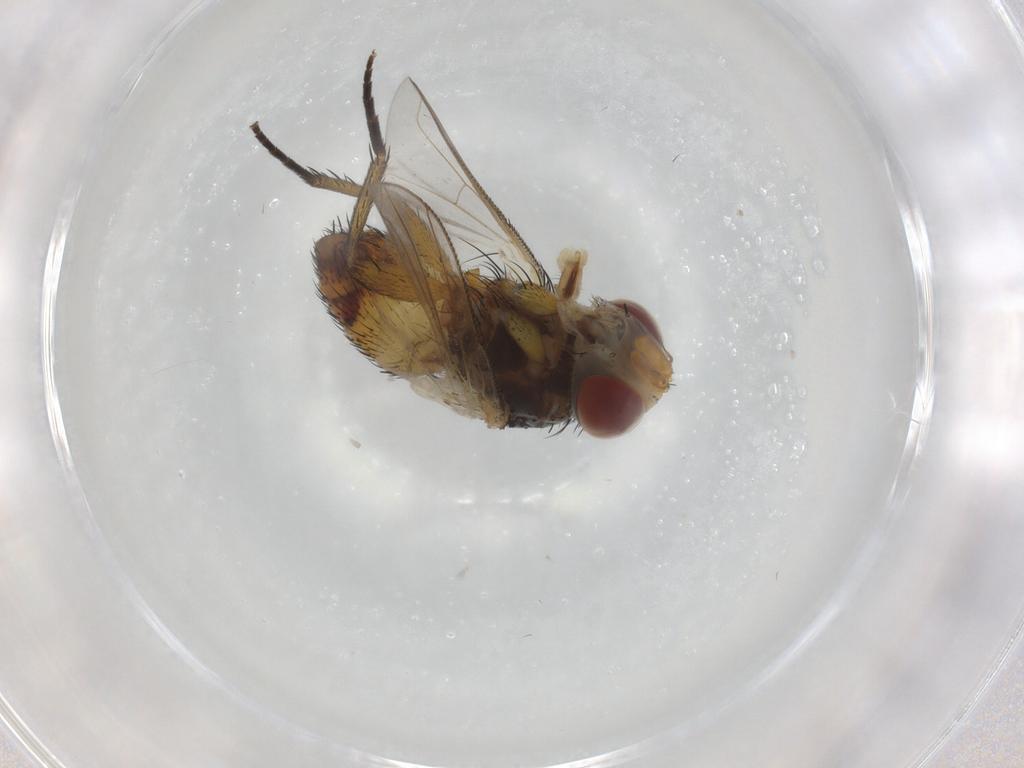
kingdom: Animalia
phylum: Arthropoda
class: Insecta
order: Diptera
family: Tachinidae
